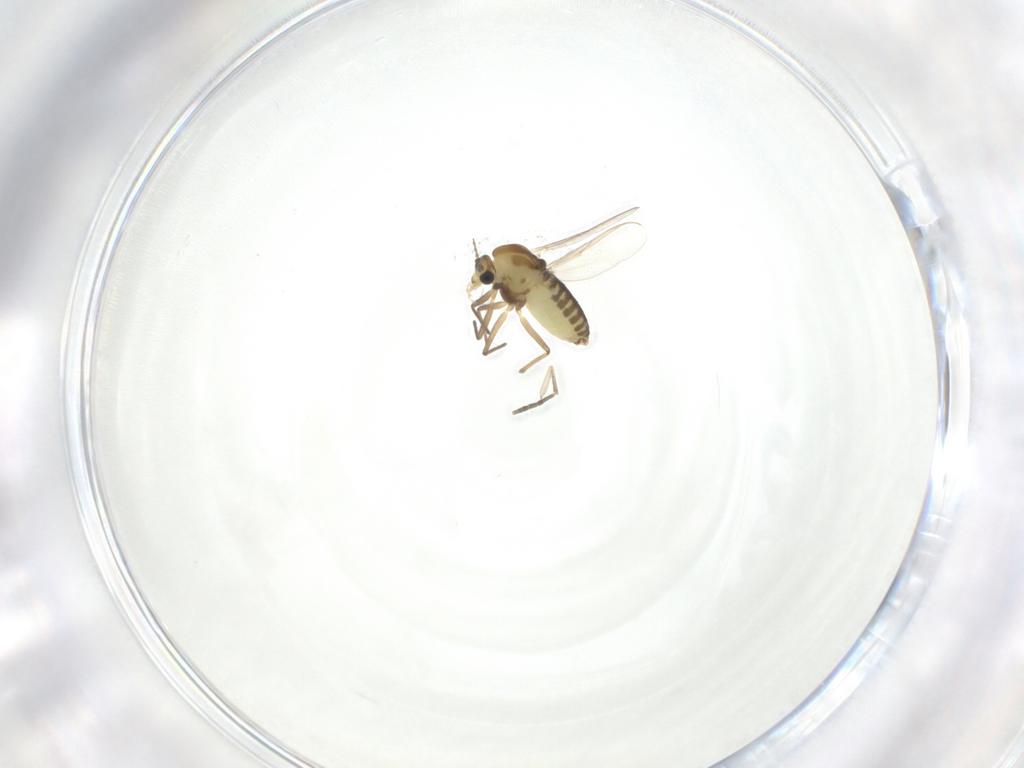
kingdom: Animalia
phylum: Arthropoda
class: Insecta
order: Diptera
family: Chironomidae
